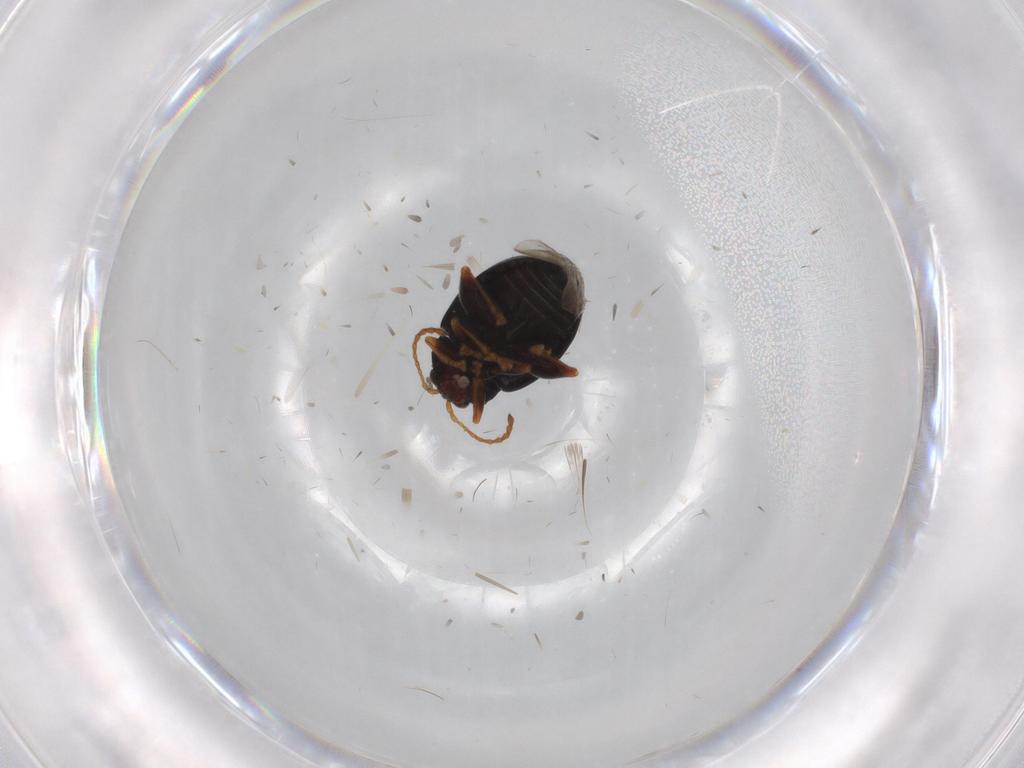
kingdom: Animalia
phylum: Arthropoda
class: Insecta
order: Coleoptera
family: Chrysomelidae
